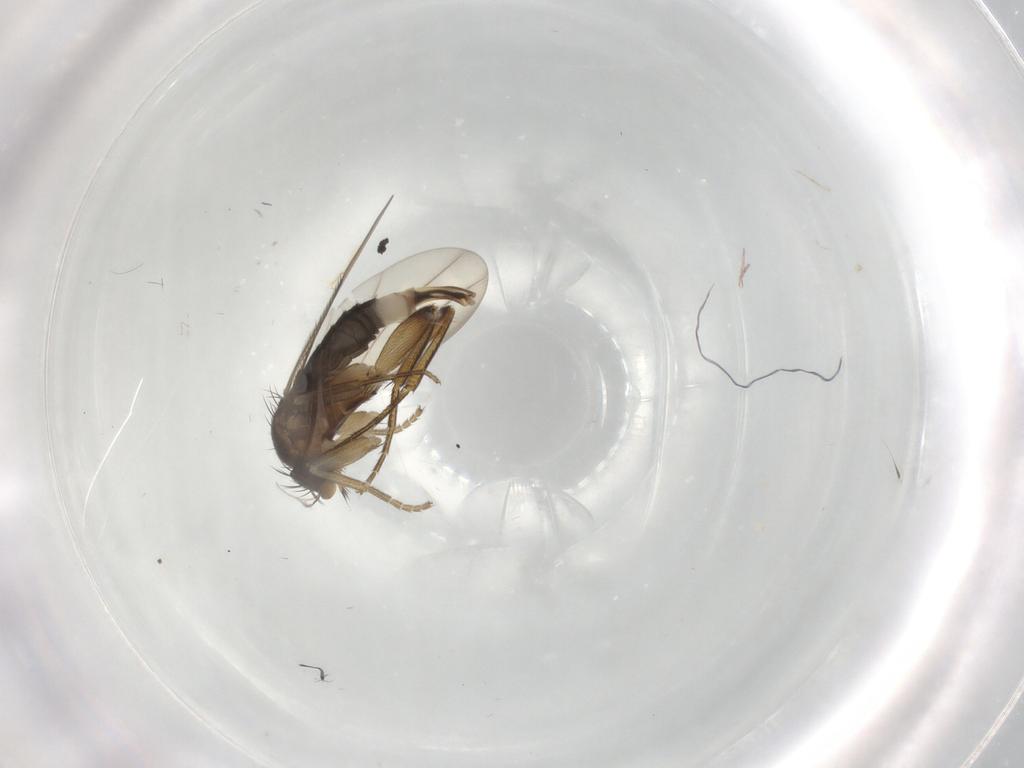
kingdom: Animalia
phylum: Arthropoda
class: Insecta
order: Diptera
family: Phoridae
